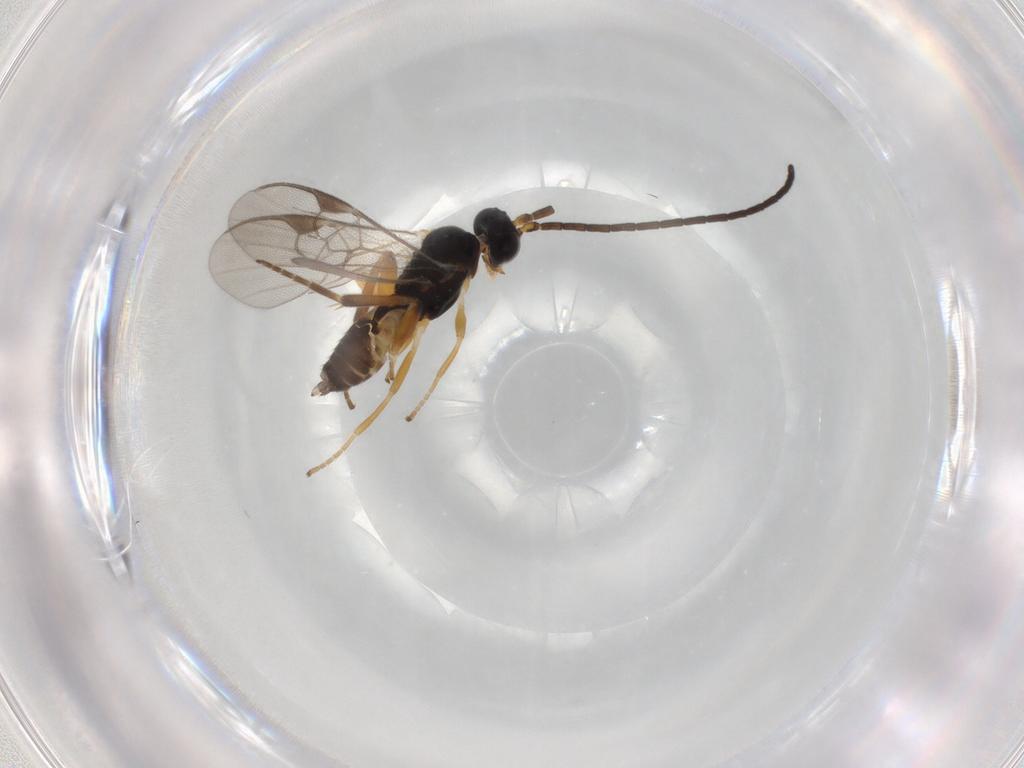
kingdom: Animalia
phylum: Arthropoda
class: Insecta
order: Hymenoptera
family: Braconidae
